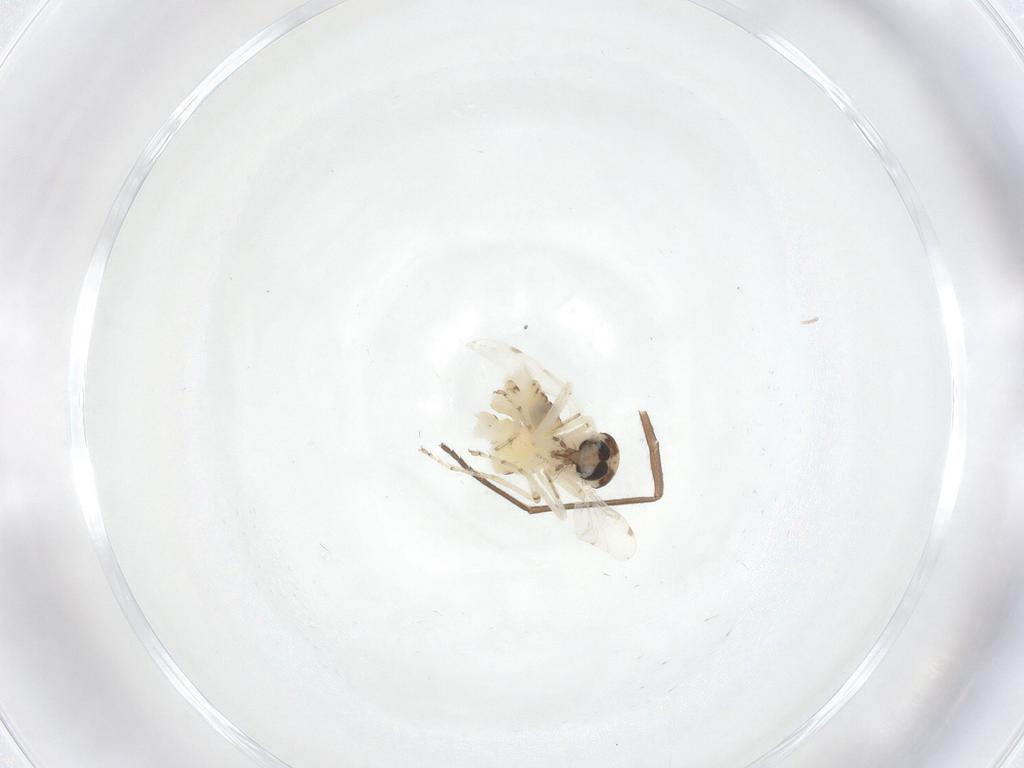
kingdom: Animalia
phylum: Arthropoda
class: Insecta
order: Diptera
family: Ceratopogonidae
